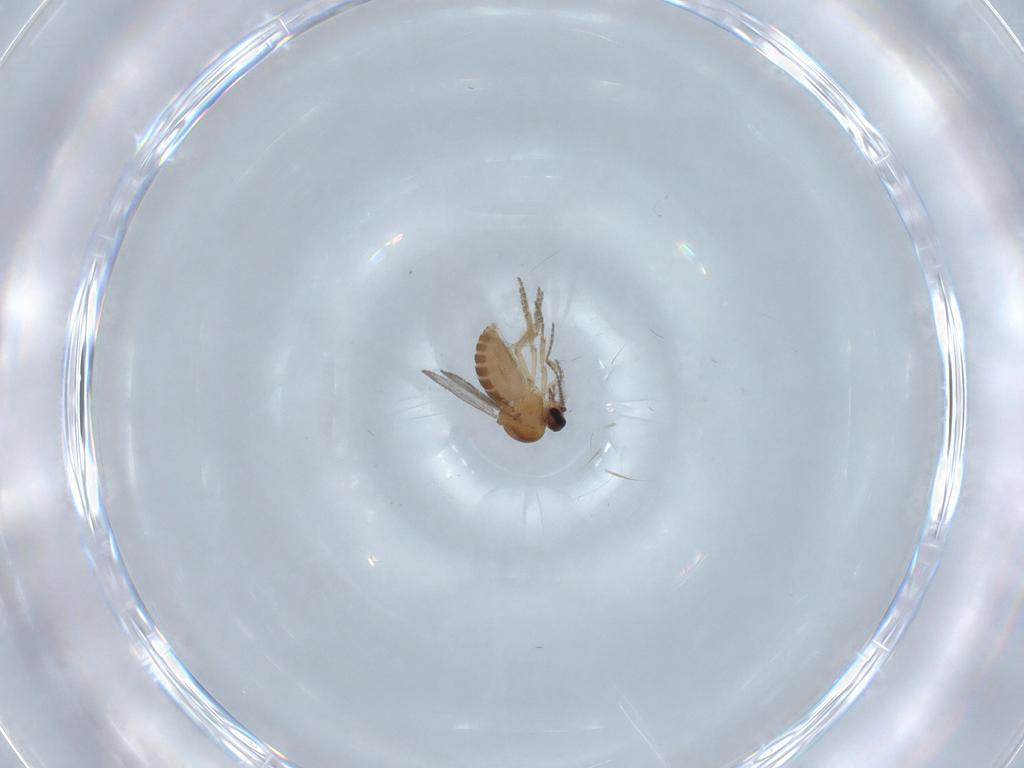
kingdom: Animalia
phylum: Arthropoda
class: Insecta
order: Diptera
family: Ceratopogonidae
